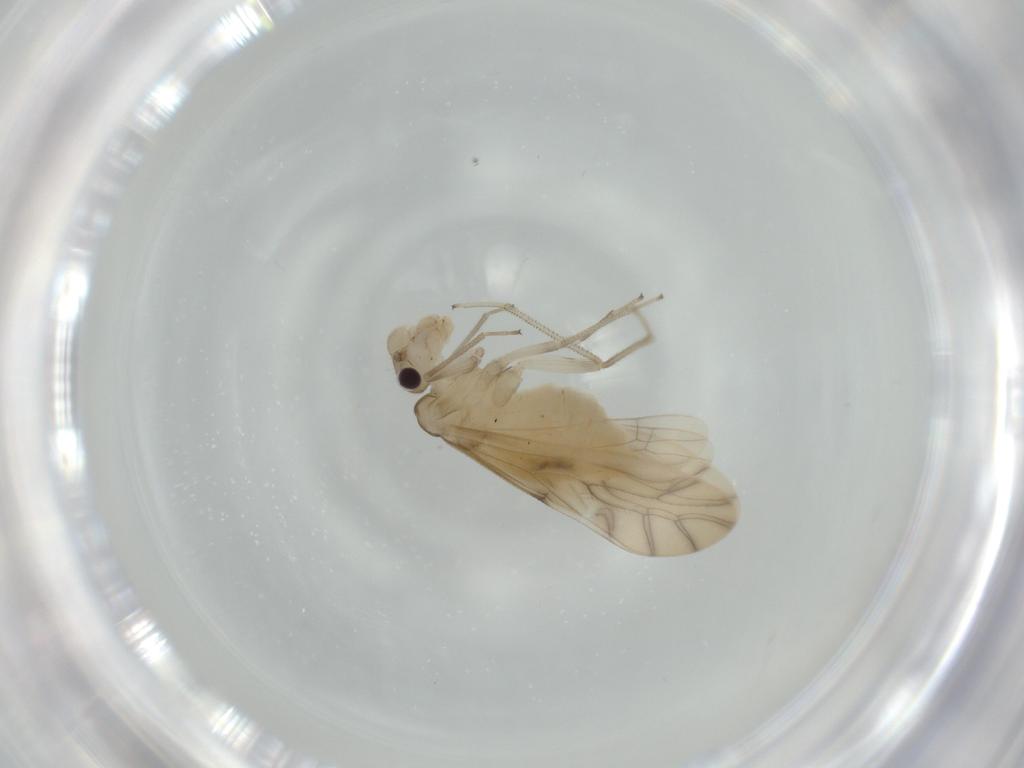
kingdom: Animalia
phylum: Arthropoda
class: Insecta
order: Psocodea
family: Caeciliusidae
